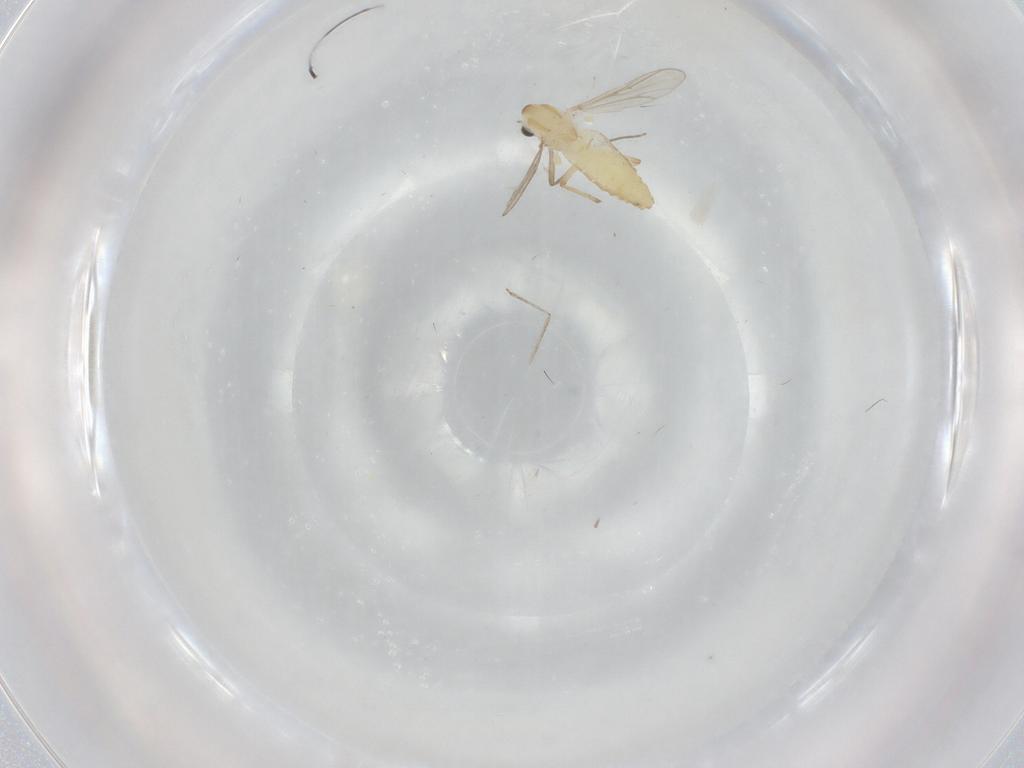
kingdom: Animalia
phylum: Arthropoda
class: Insecta
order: Diptera
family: Chironomidae
